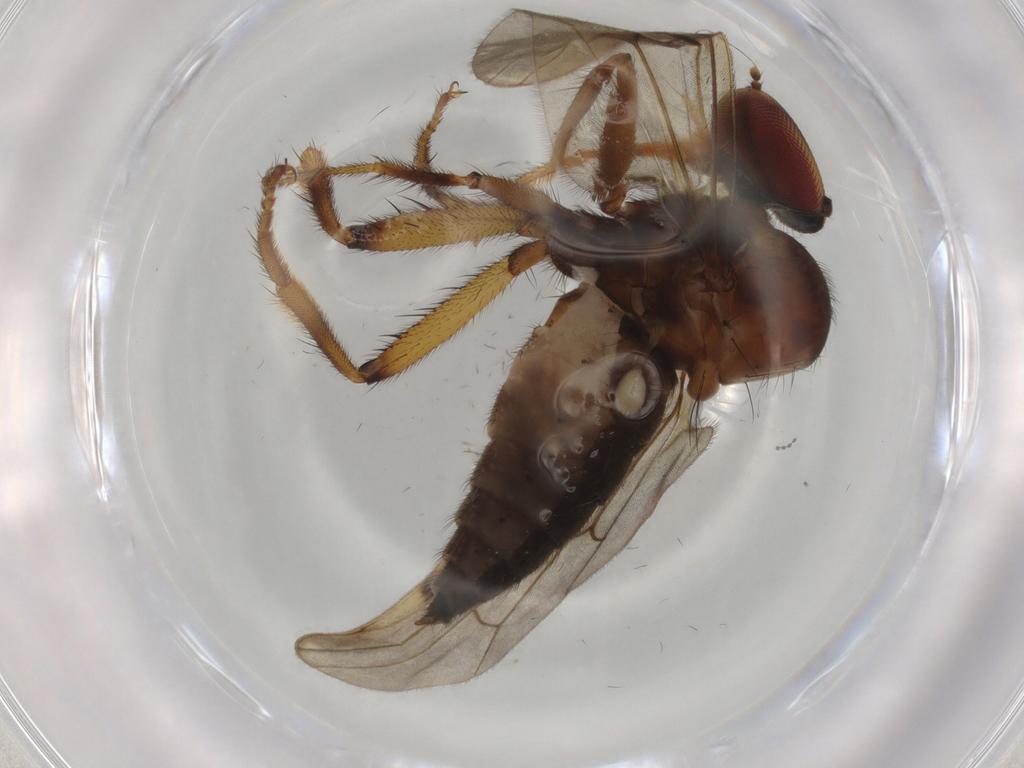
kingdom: Animalia
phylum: Arthropoda
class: Insecta
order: Diptera
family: Hybotidae
